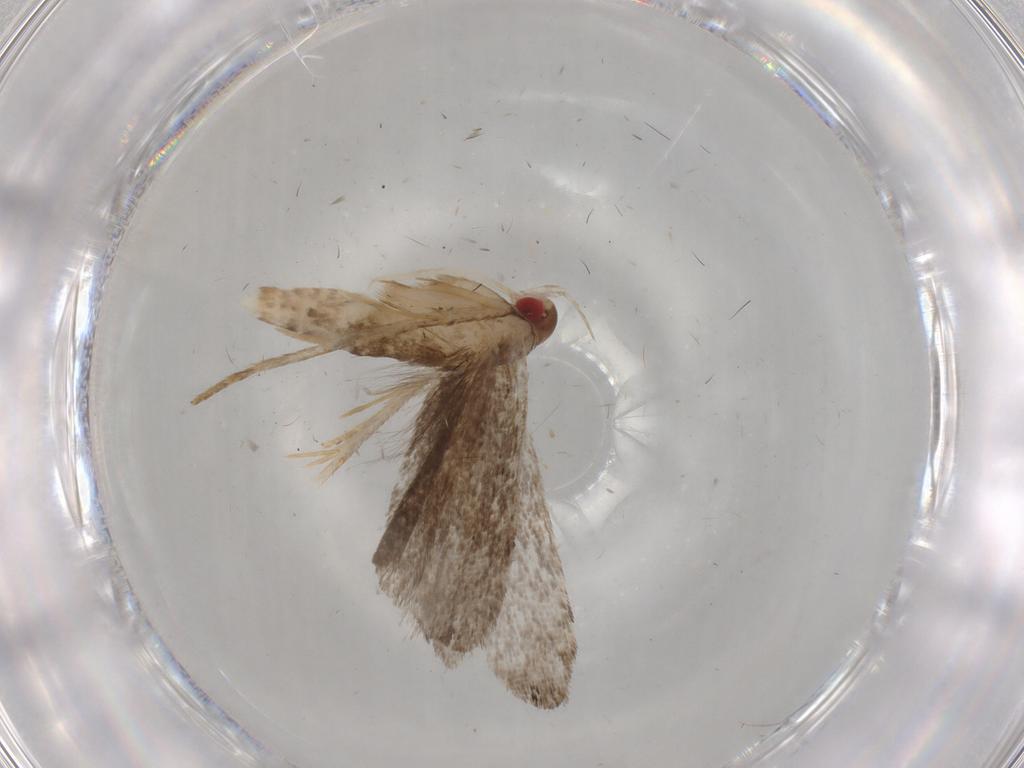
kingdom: Animalia
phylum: Arthropoda
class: Insecta
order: Lepidoptera
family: Gelechiidae
